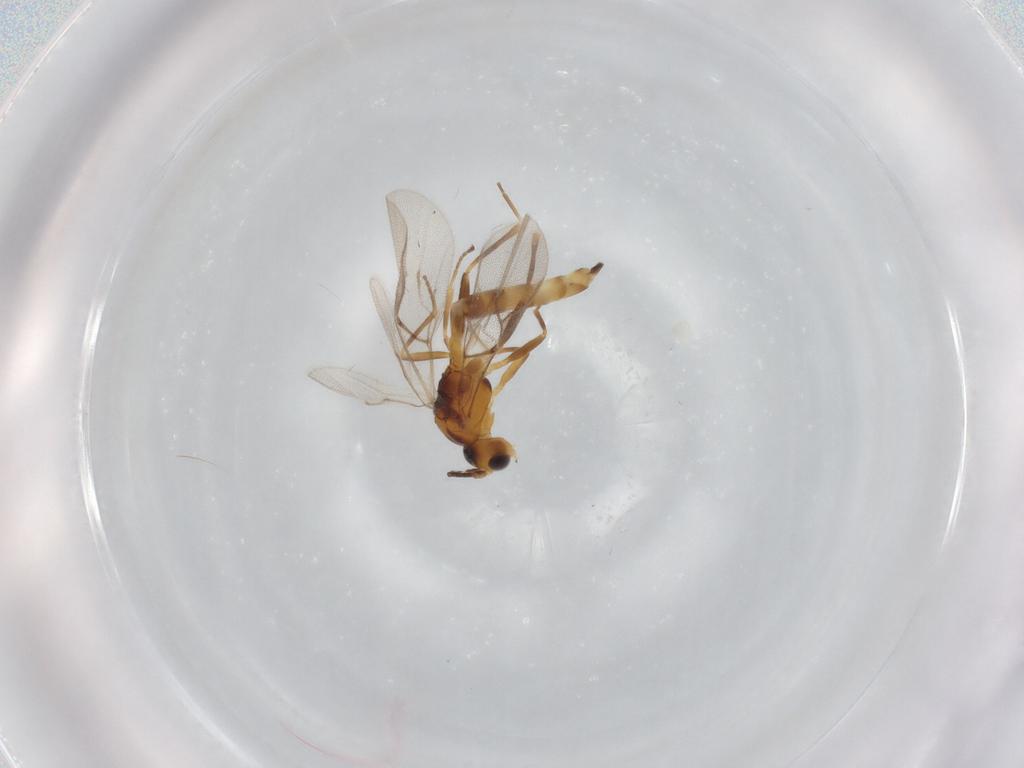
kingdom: Animalia
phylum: Arthropoda
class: Insecta
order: Hymenoptera
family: Braconidae
